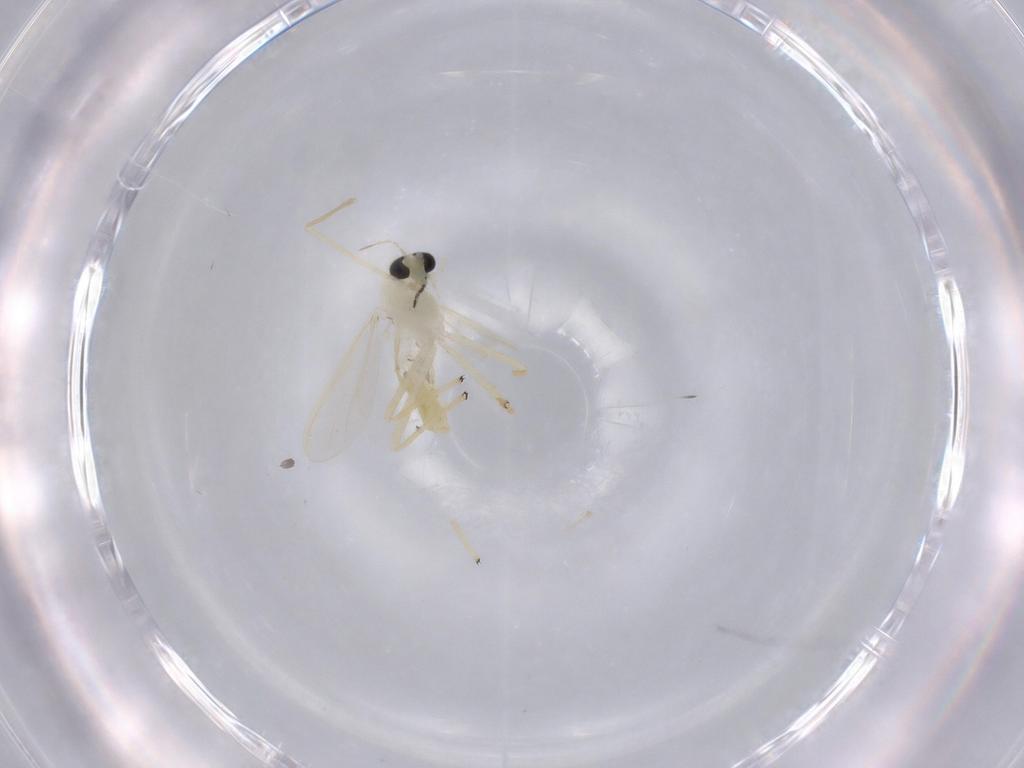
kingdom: Animalia
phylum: Arthropoda
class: Insecta
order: Diptera
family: Chironomidae
